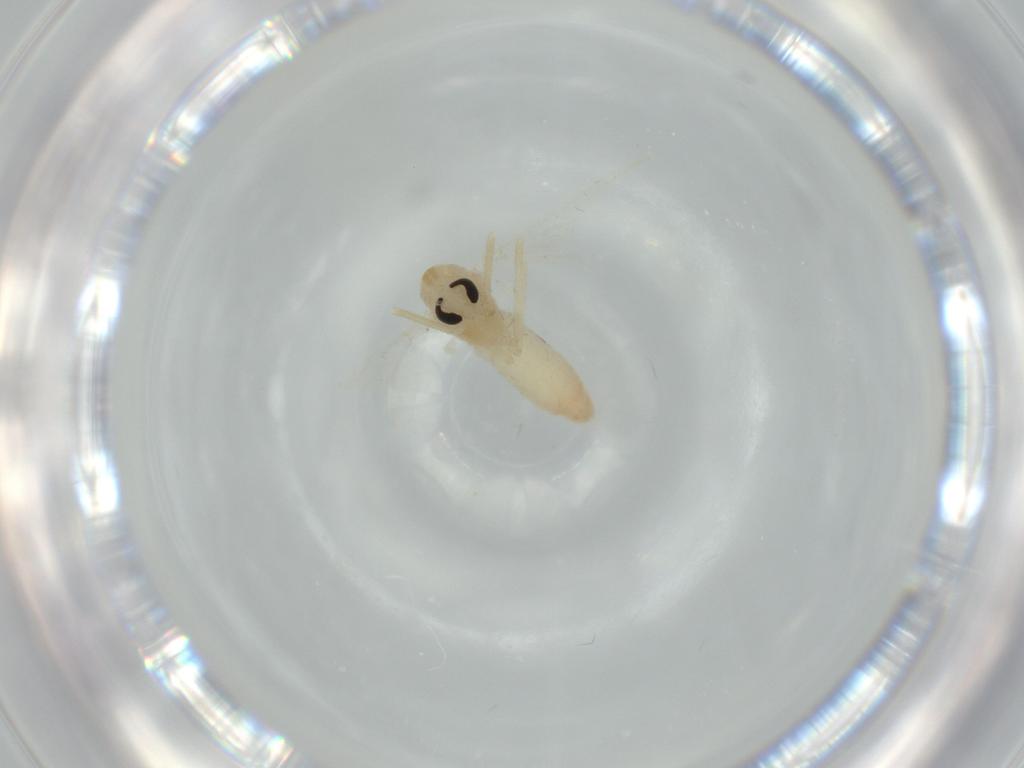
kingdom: Animalia
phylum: Arthropoda
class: Insecta
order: Diptera
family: Chironomidae
